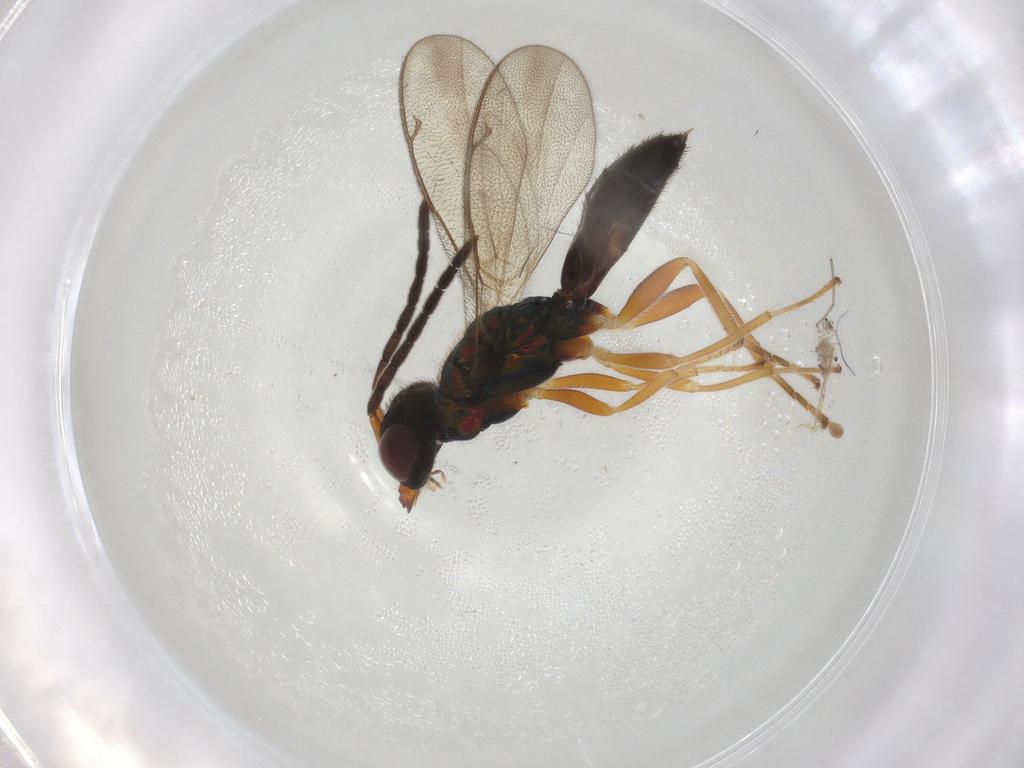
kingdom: Animalia
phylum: Arthropoda
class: Insecta
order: Hymenoptera
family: Pteromalidae
